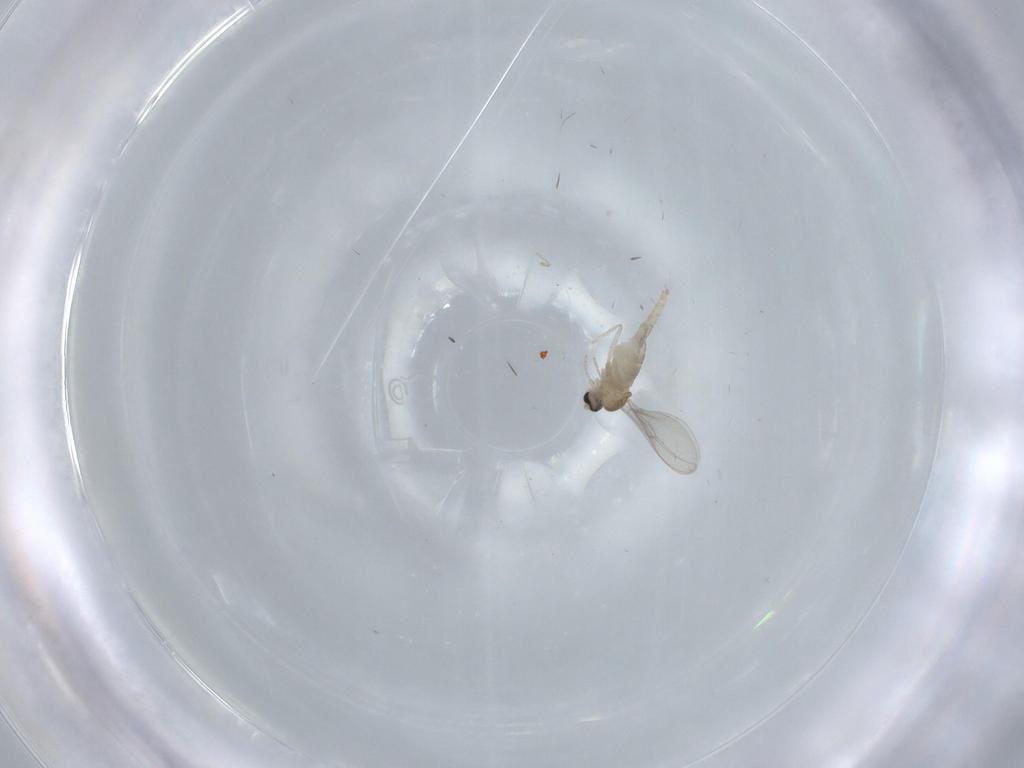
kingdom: Animalia
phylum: Arthropoda
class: Insecta
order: Diptera
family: Cecidomyiidae
